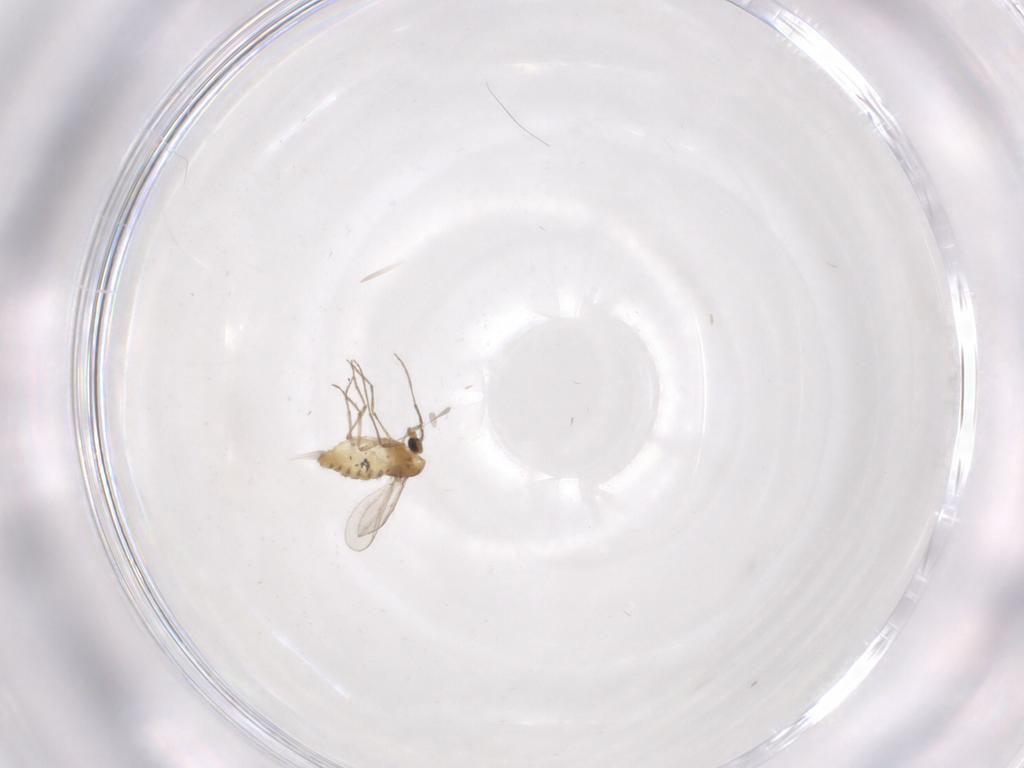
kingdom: Animalia
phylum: Arthropoda
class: Insecta
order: Diptera
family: Chironomidae
